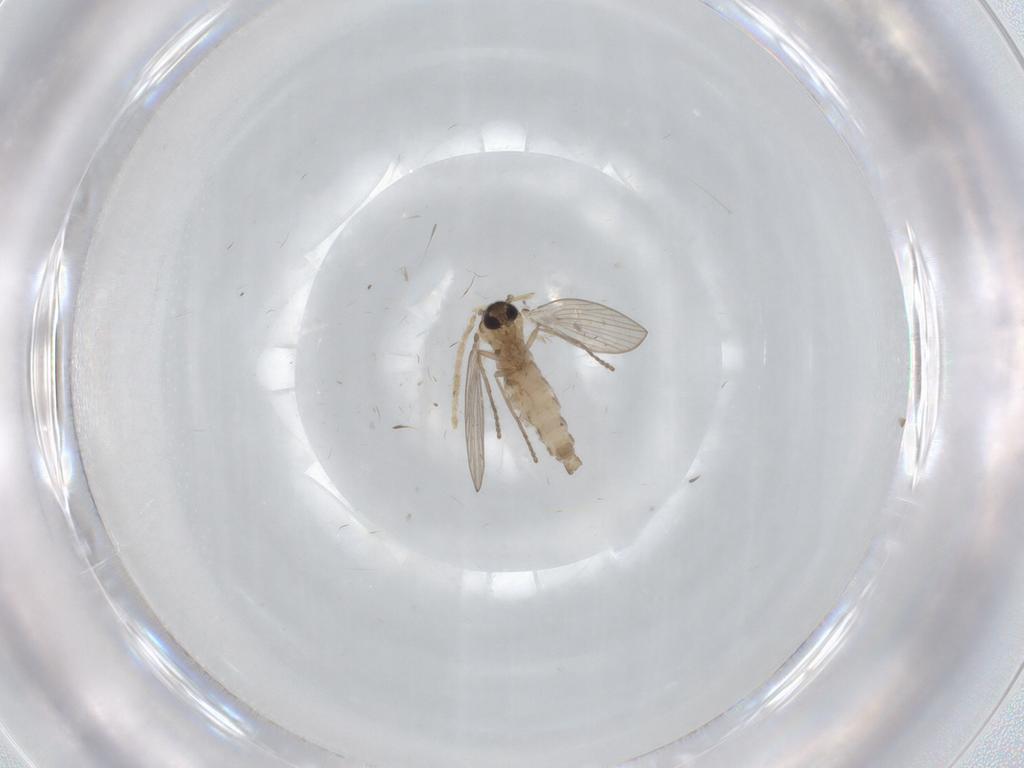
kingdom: Animalia
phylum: Arthropoda
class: Insecta
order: Diptera
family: Psychodidae
